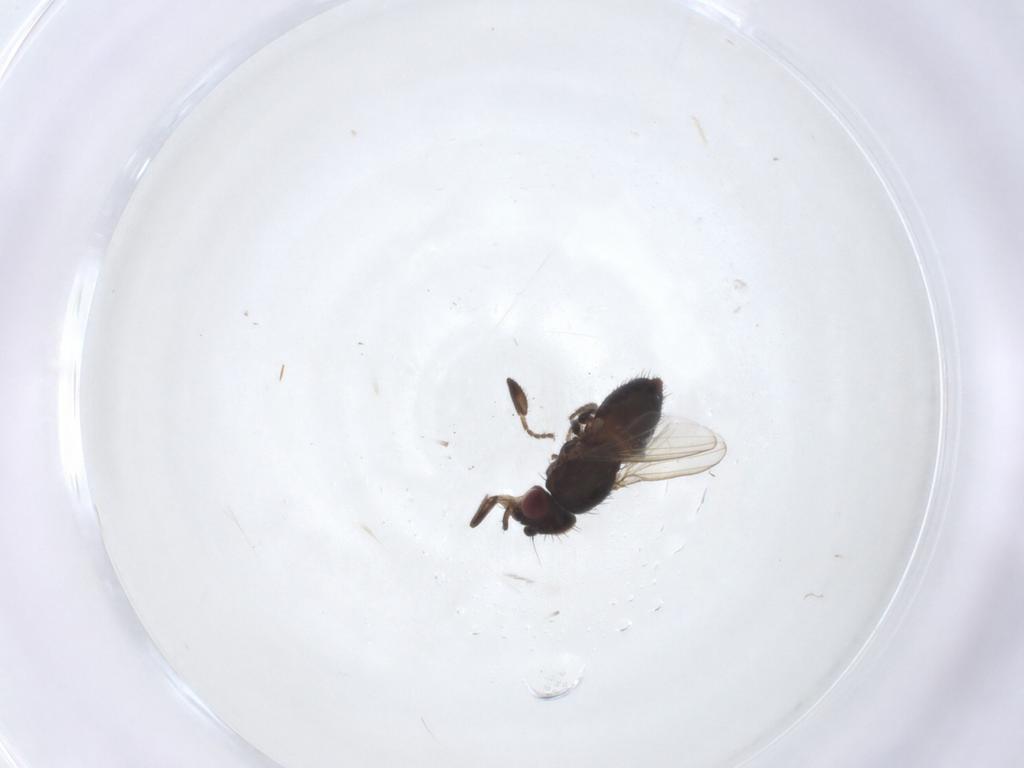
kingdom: Animalia
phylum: Arthropoda
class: Insecta
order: Diptera
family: Milichiidae
